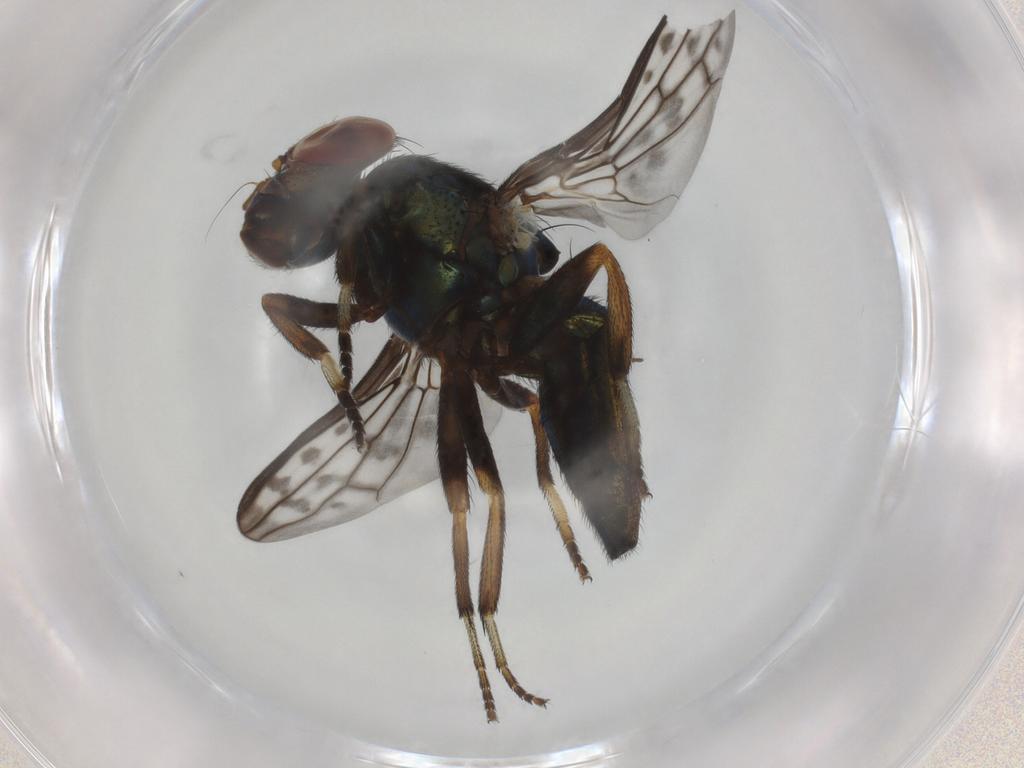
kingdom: Animalia
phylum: Arthropoda
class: Insecta
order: Diptera
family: Ulidiidae
